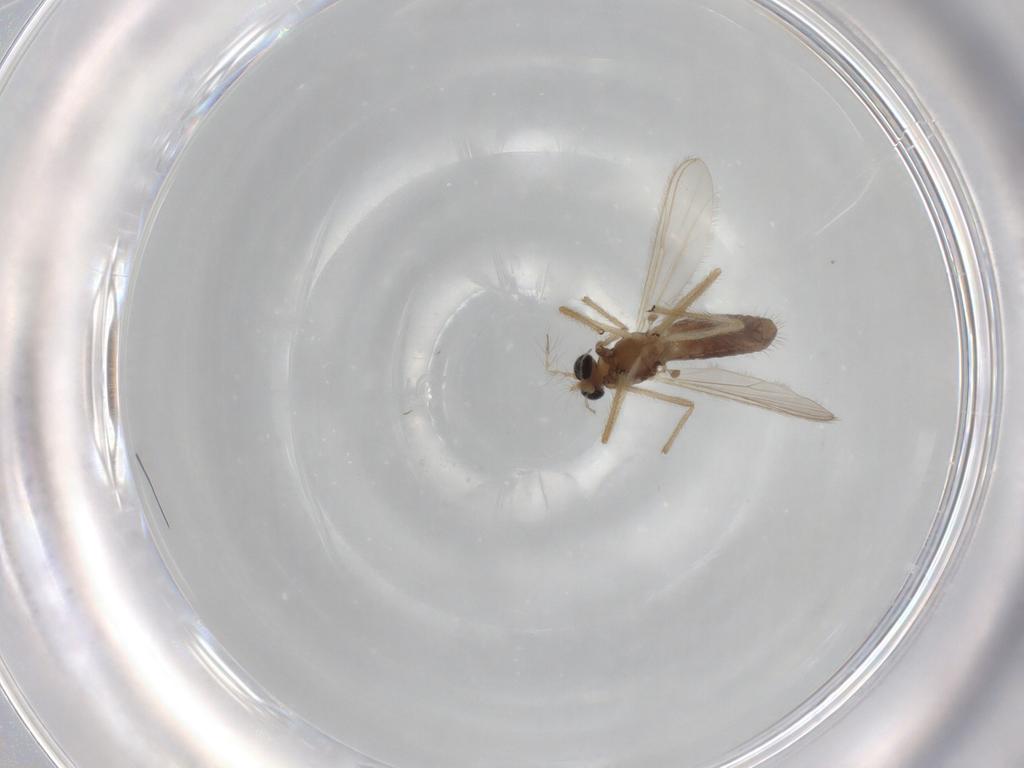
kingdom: Animalia
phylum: Arthropoda
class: Insecta
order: Diptera
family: Chironomidae
